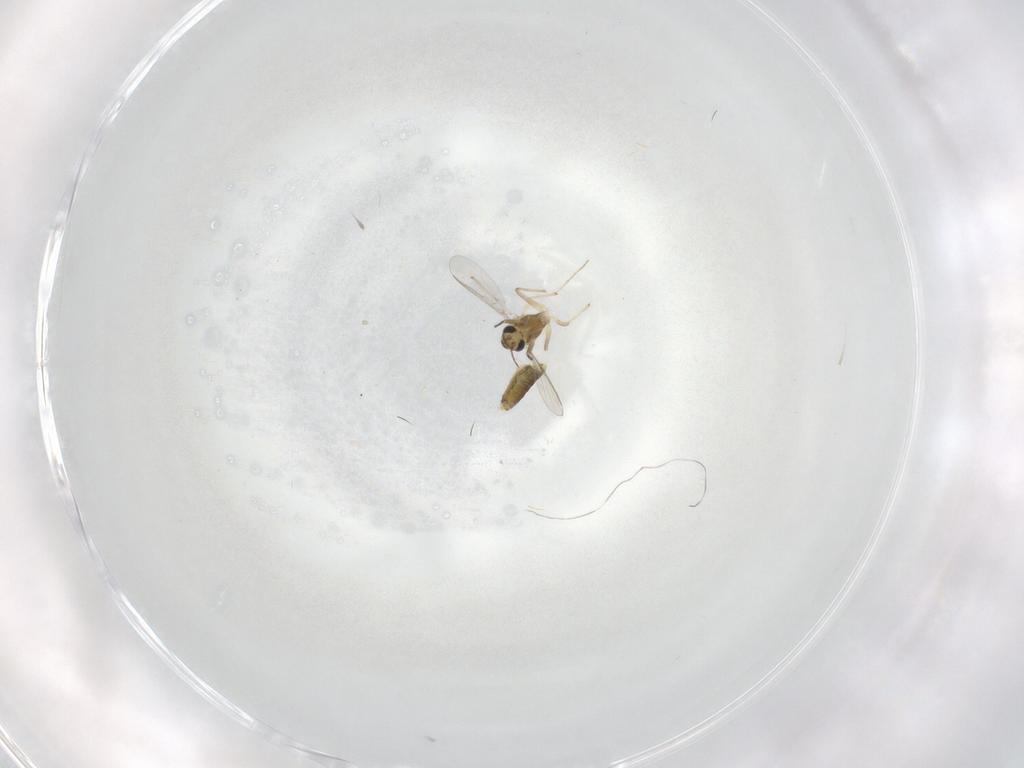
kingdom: Animalia
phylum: Arthropoda
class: Insecta
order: Diptera
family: Chironomidae
